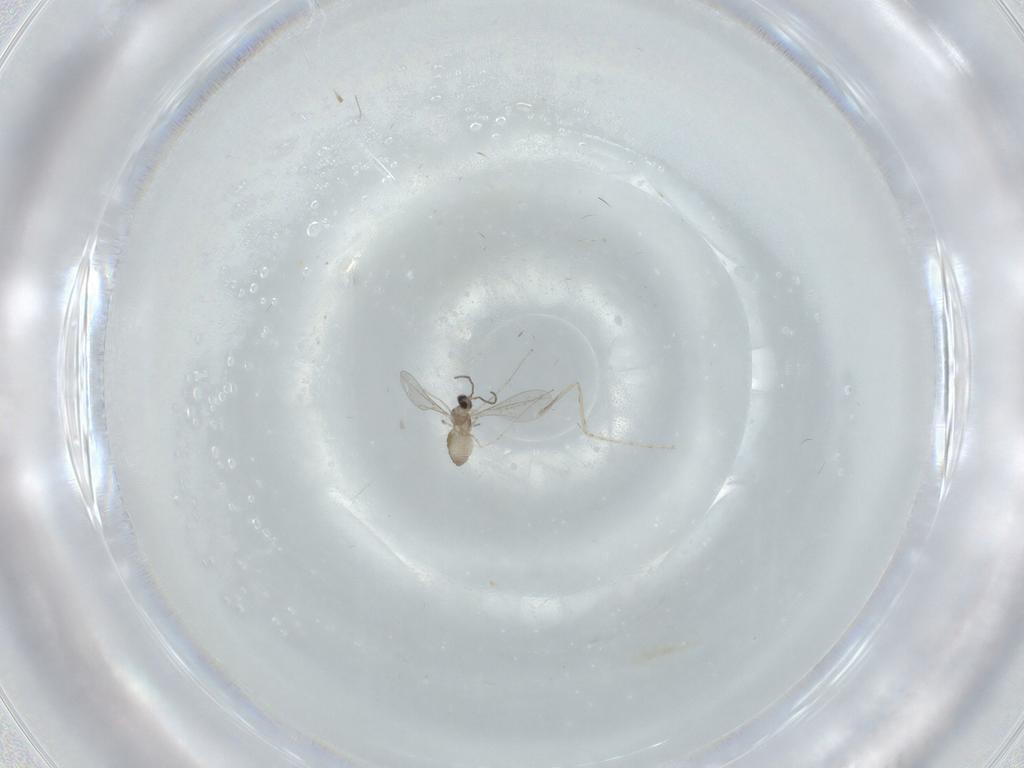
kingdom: Animalia
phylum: Arthropoda
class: Insecta
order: Diptera
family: Cecidomyiidae
